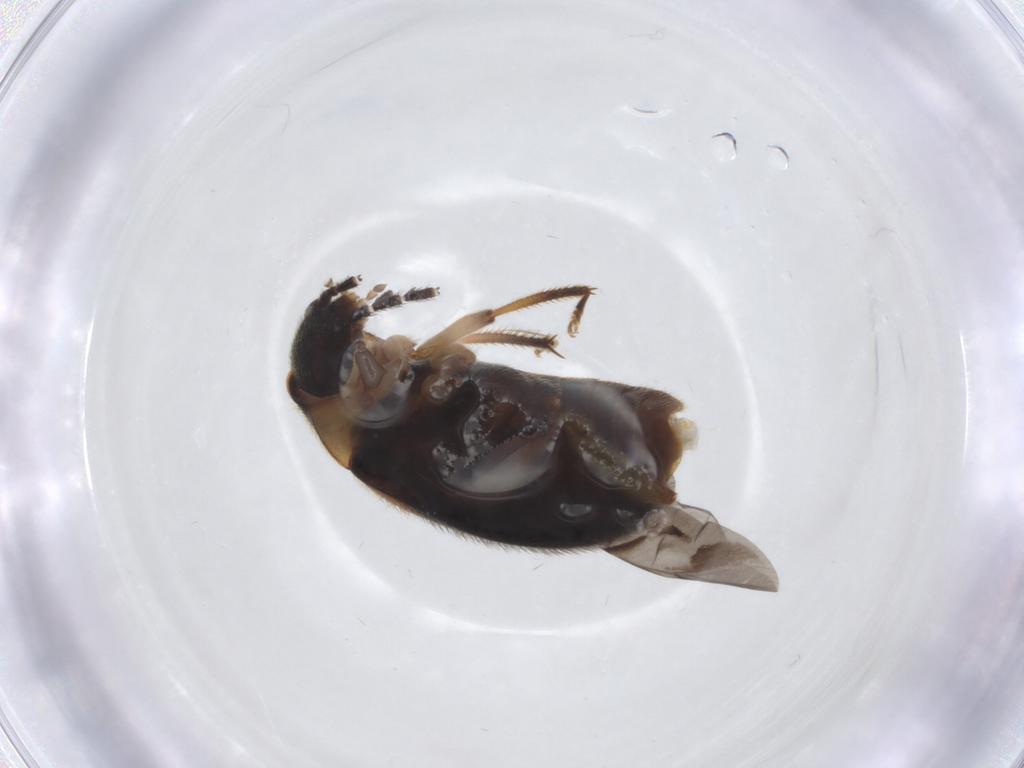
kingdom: Animalia
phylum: Arthropoda
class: Insecta
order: Coleoptera
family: Ptilodactylidae
